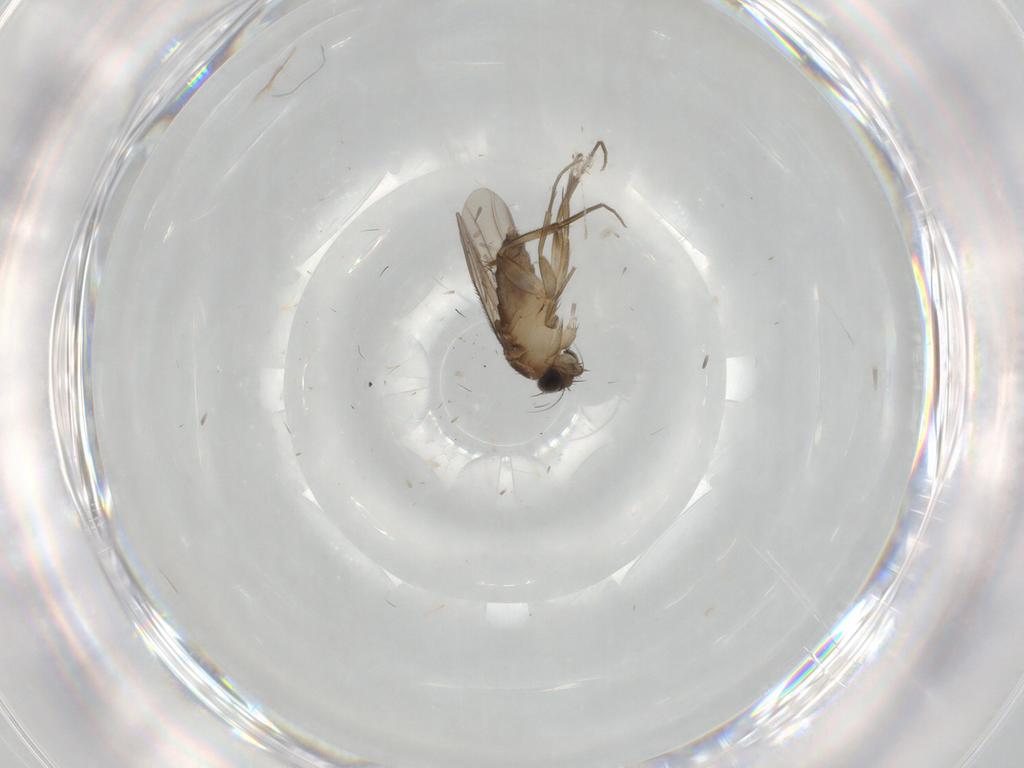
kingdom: Animalia
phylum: Arthropoda
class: Insecta
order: Diptera
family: Phoridae
